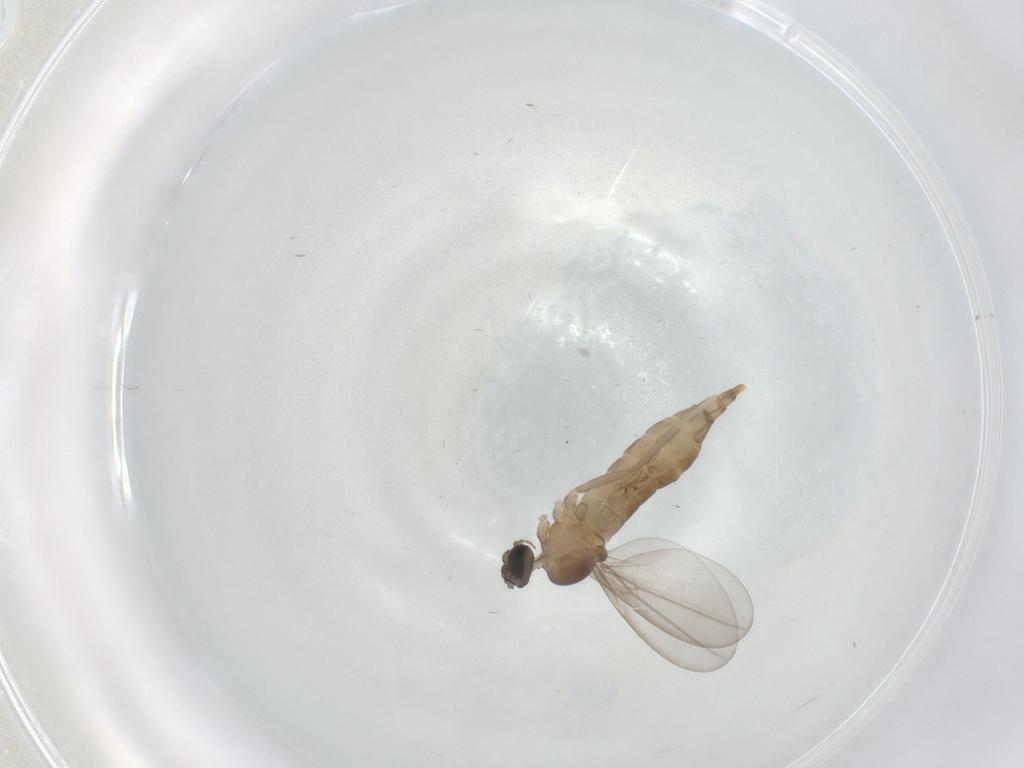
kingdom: Animalia
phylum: Arthropoda
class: Insecta
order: Diptera
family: Cecidomyiidae
